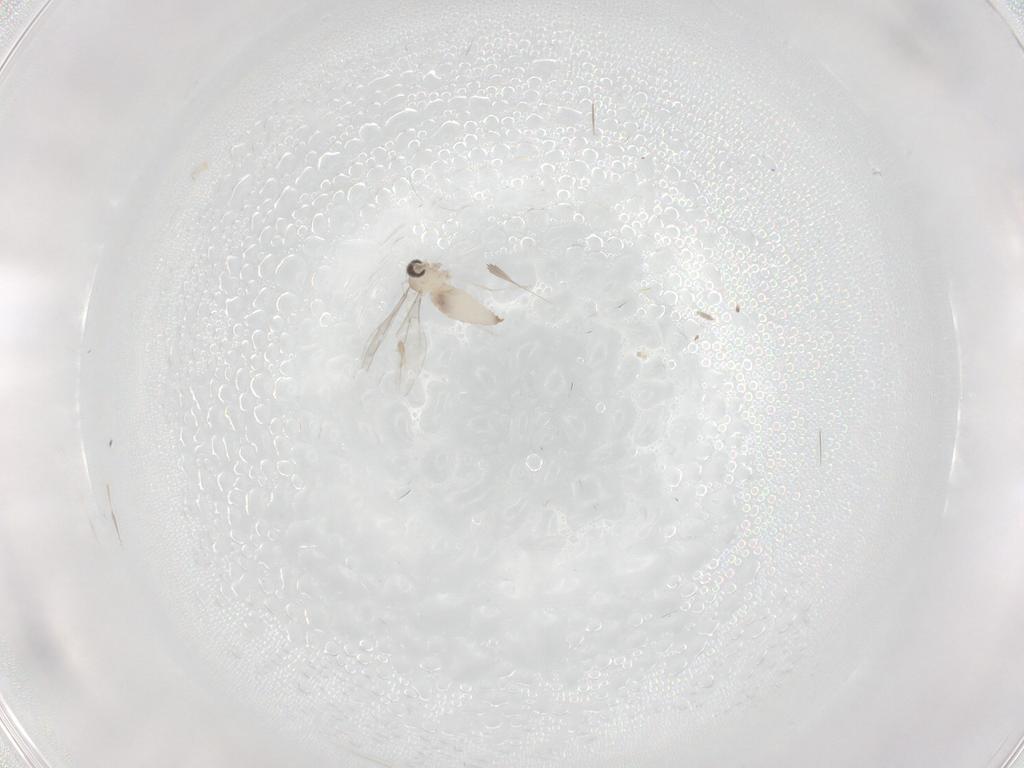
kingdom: Animalia
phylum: Arthropoda
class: Insecta
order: Diptera
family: Cecidomyiidae
